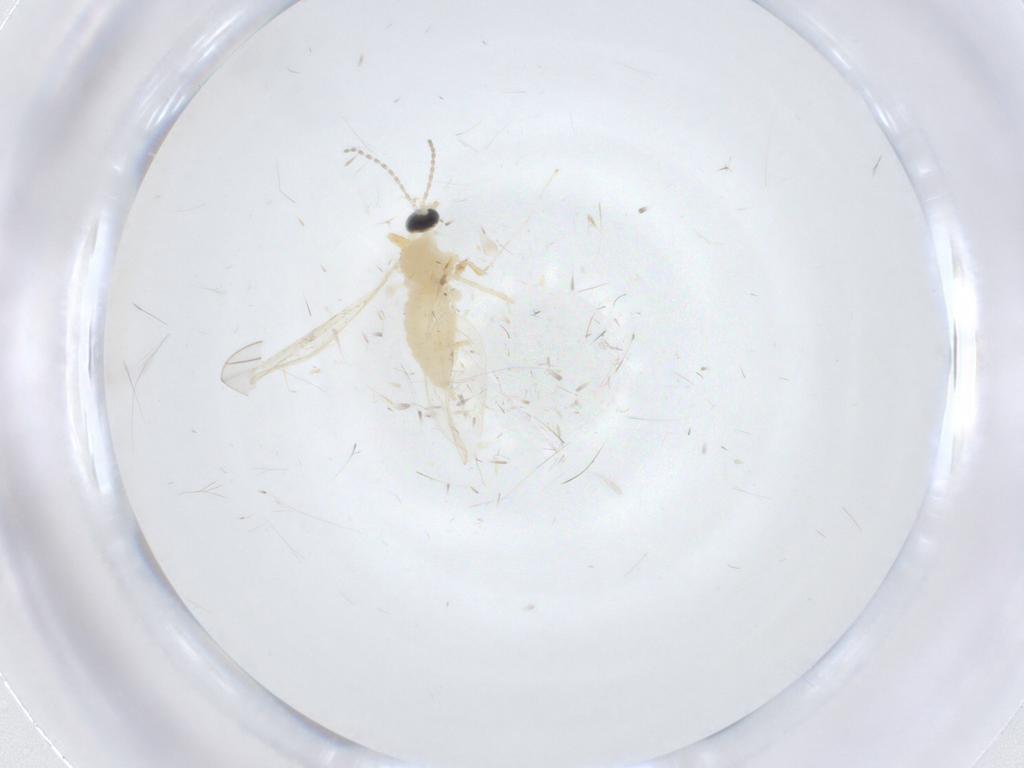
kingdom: Animalia
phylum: Arthropoda
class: Insecta
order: Diptera
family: Cecidomyiidae
